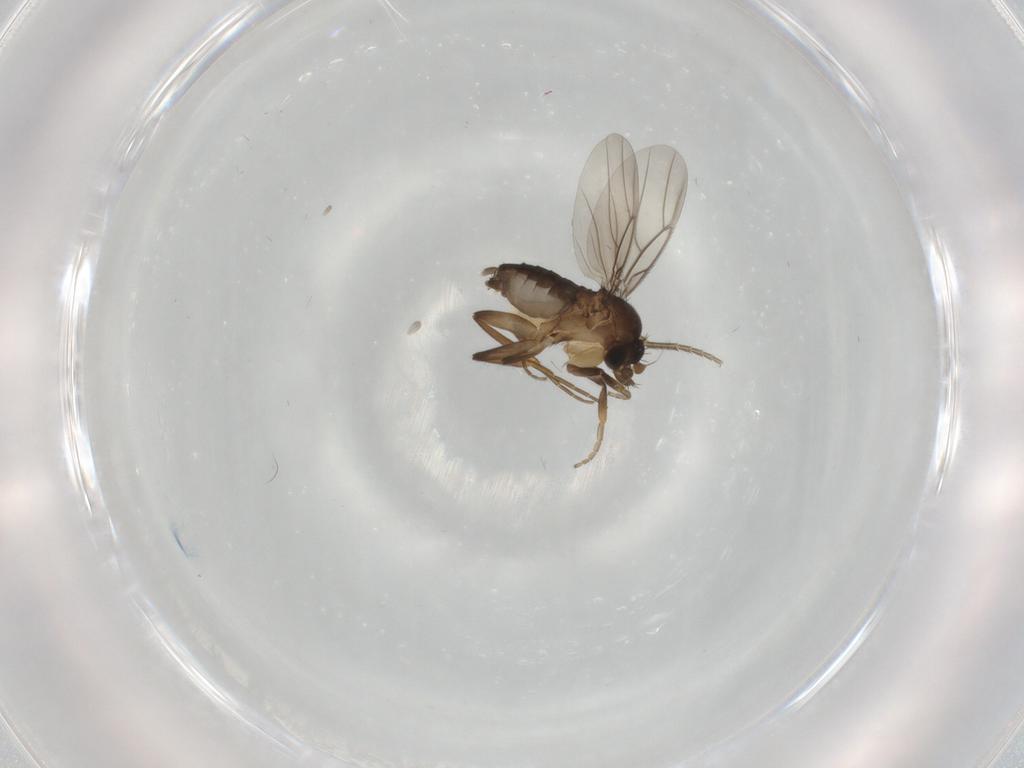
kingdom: Animalia
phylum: Arthropoda
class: Insecta
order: Diptera
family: Phoridae
